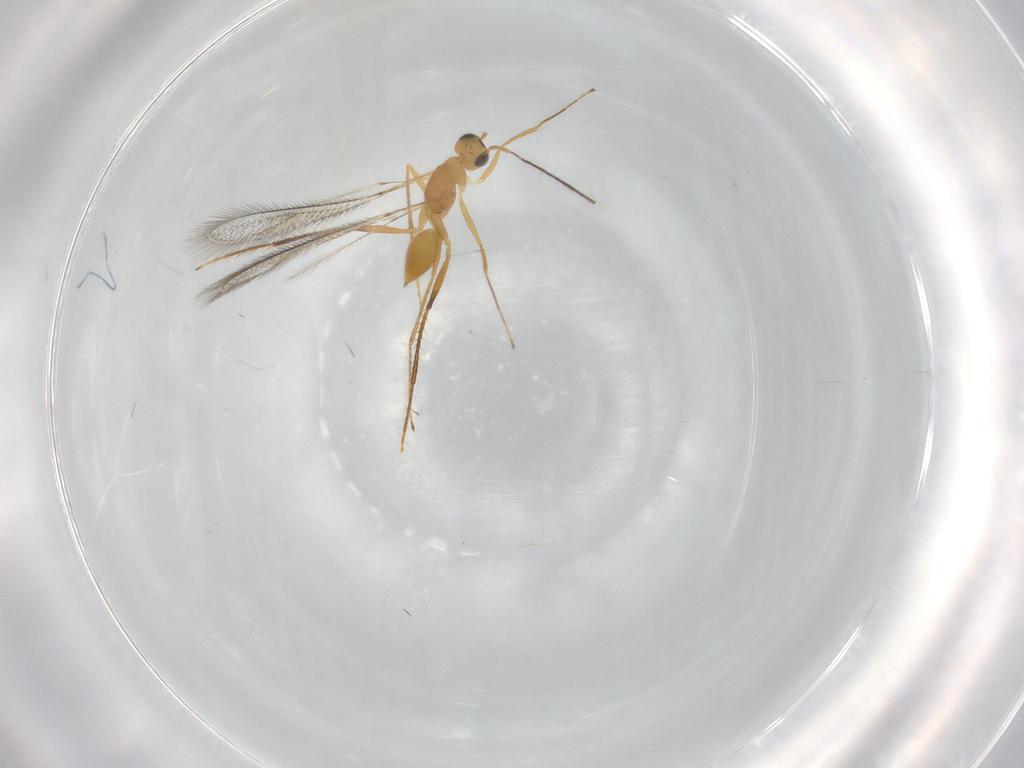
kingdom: Animalia
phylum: Arthropoda
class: Insecta
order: Hymenoptera
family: Mymaridae
